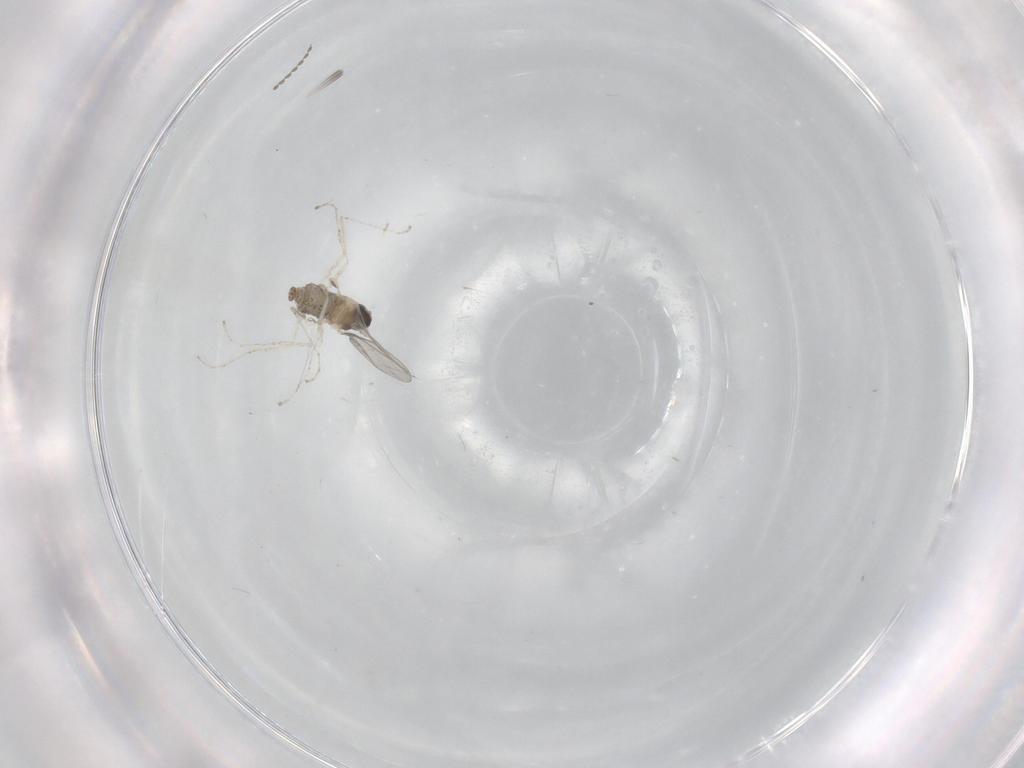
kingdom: Animalia
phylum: Arthropoda
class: Insecta
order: Diptera
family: Cecidomyiidae
